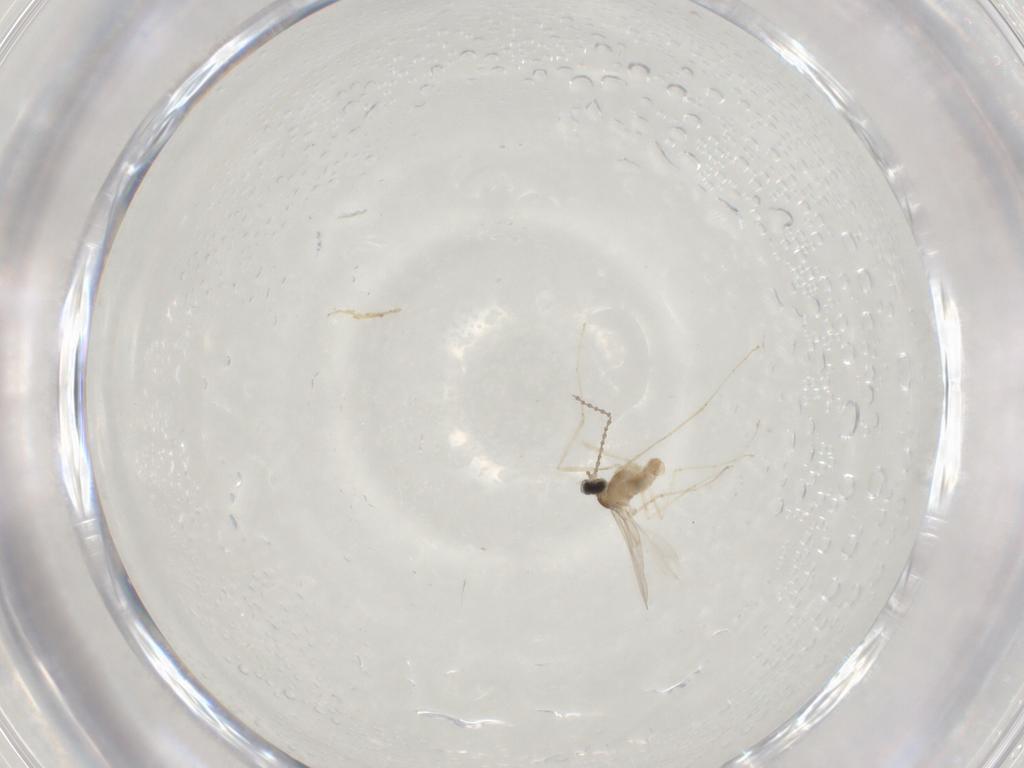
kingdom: Animalia
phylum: Arthropoda
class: Insecta
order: Diptera
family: Cecidomyiidae
